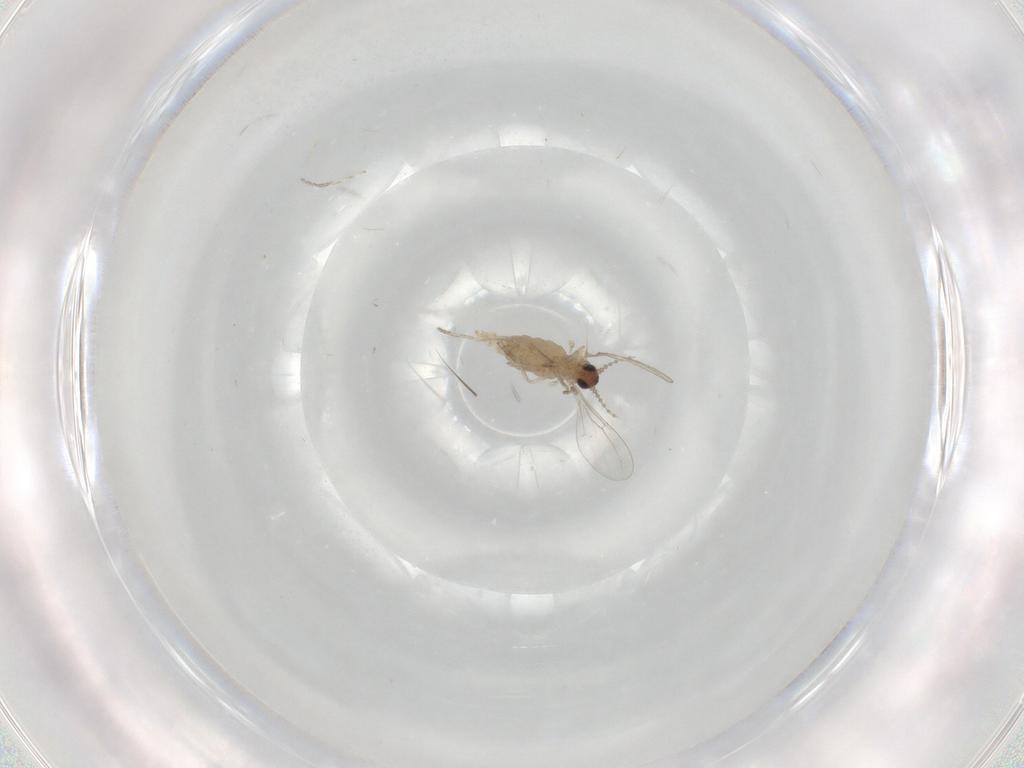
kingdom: Animalia
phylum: Arthropoda
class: Insecta
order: Diptera
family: Cecidomyiidae
